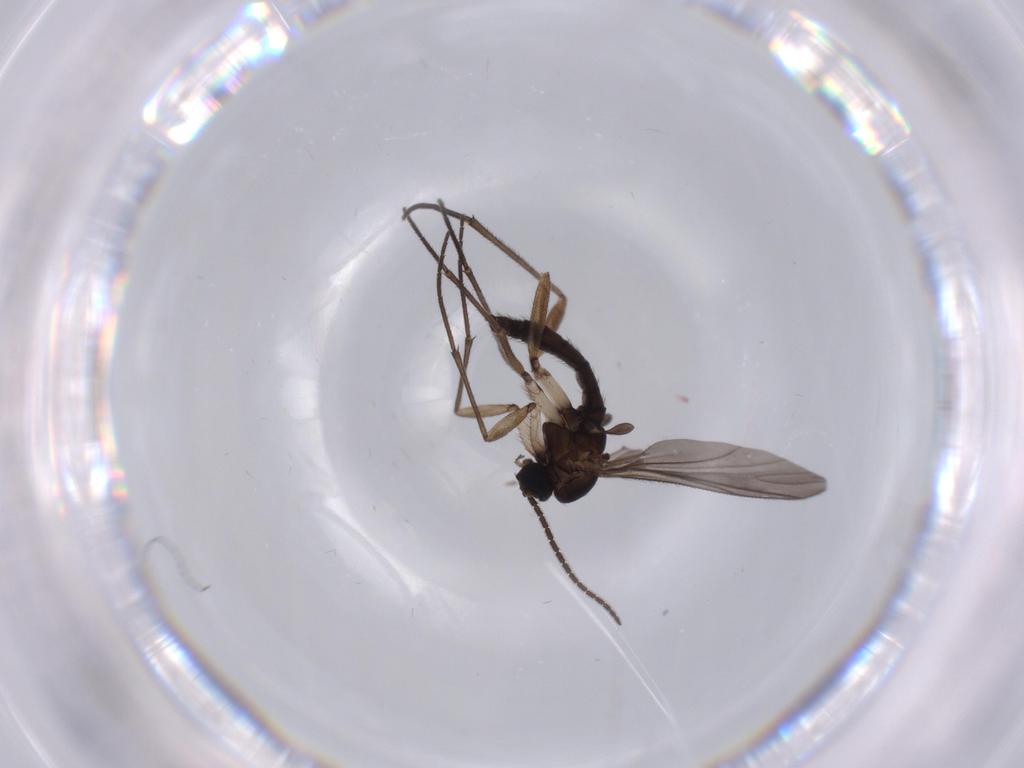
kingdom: Animalia
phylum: Arthropoda
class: Insecta
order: Diptera
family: Ceratopogonidae
